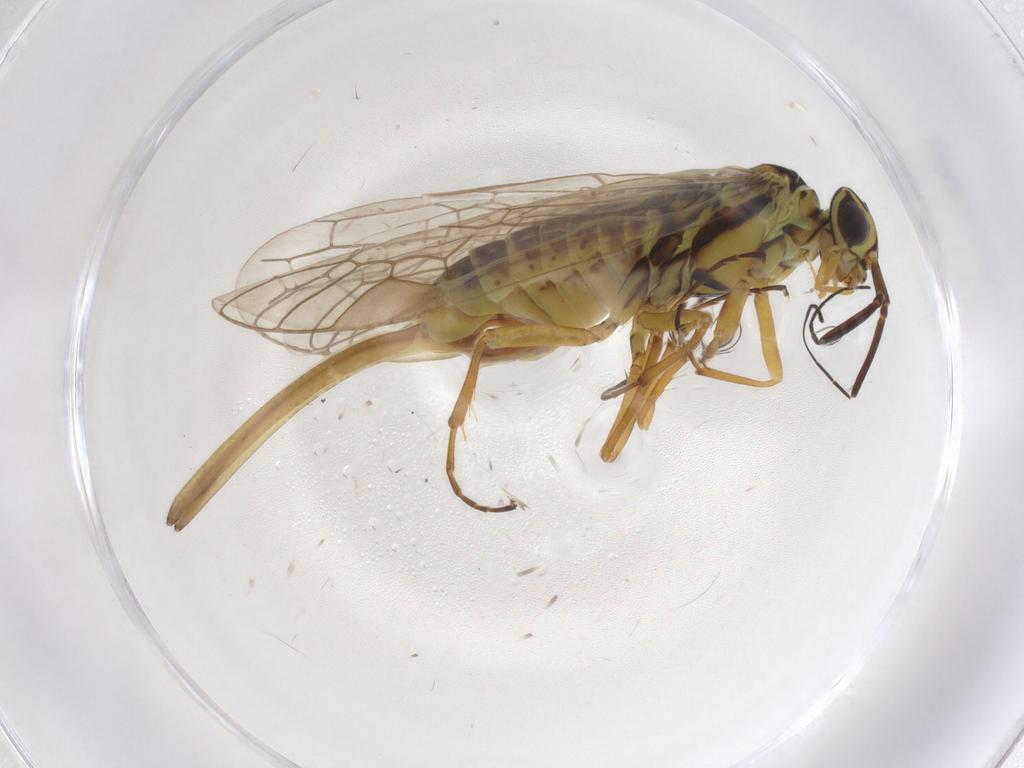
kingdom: Animalia
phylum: Arthropoda
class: Insecta
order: Hymenoptera
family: Xyelidae
